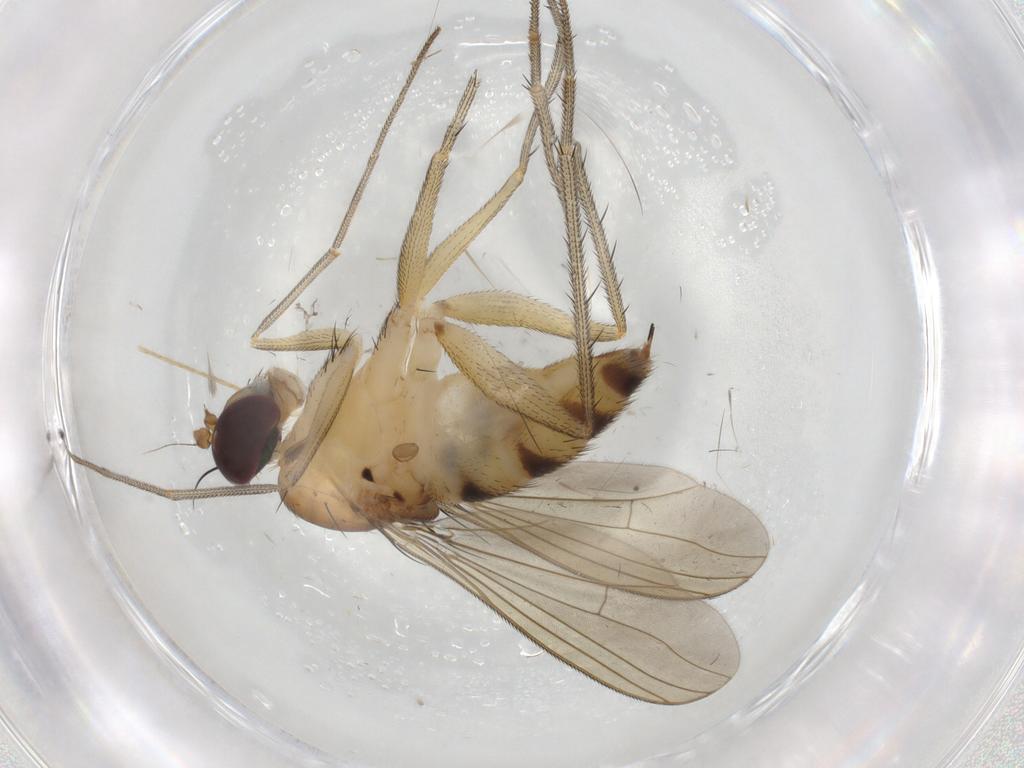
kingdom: Animalia
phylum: Arthropoda
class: Insecta
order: Diptera
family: Limoniidae
